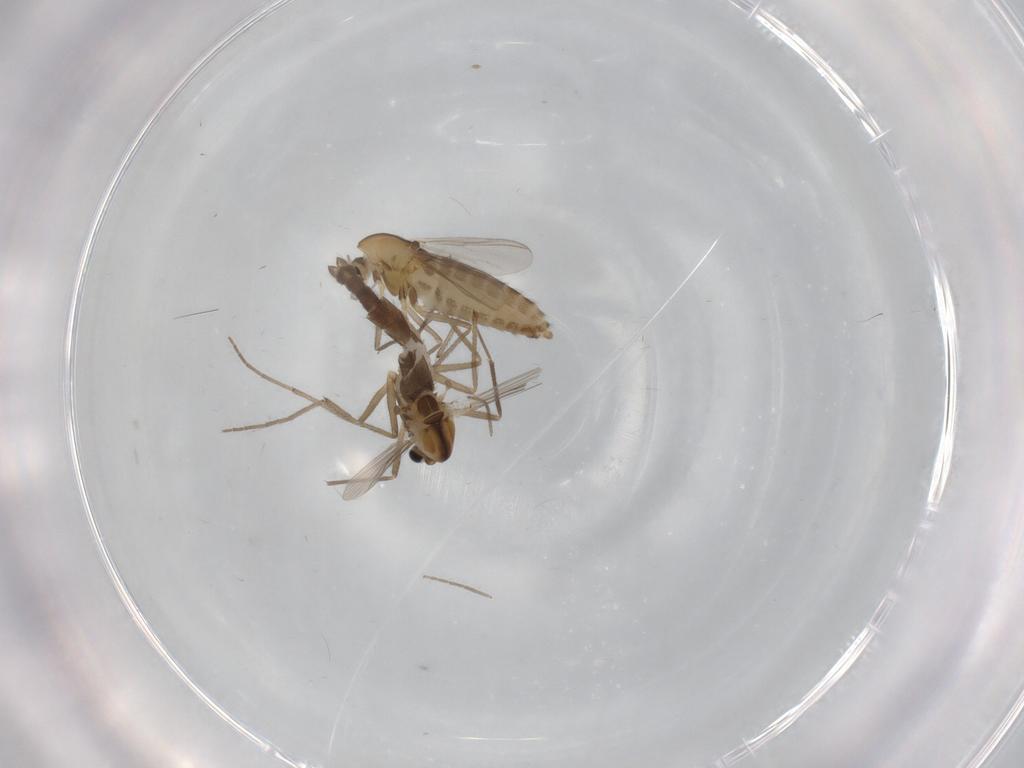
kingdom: Animalia
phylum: Arthropoda
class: Insecta
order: Diptera
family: Chironomidae
